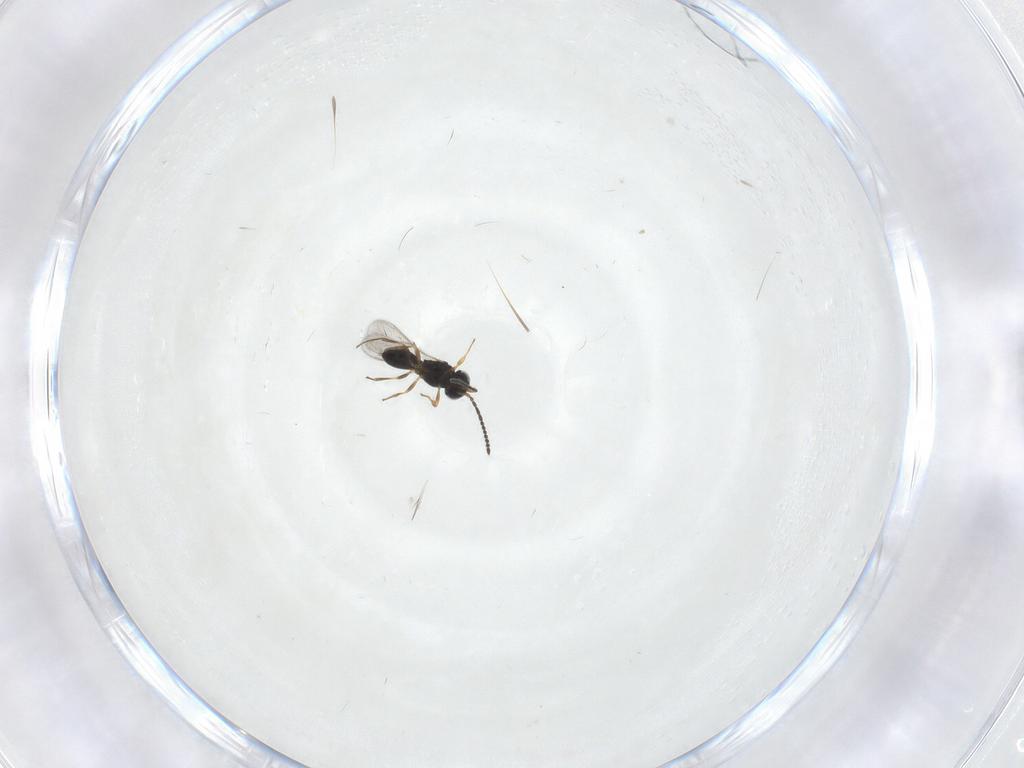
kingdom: Animalia
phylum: Arthropoda
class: Insecta
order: Hymenoptera
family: Scelionidae
